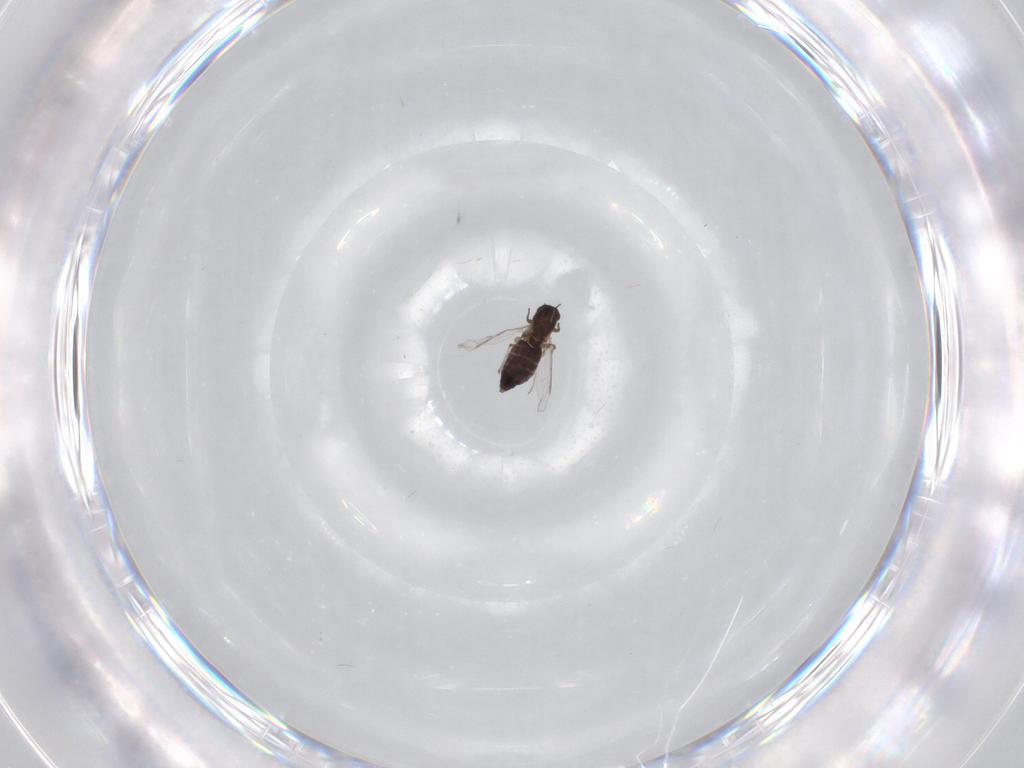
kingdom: Animalia
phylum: Arthropoda
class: Insecta
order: Diptera
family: Chironomidae
